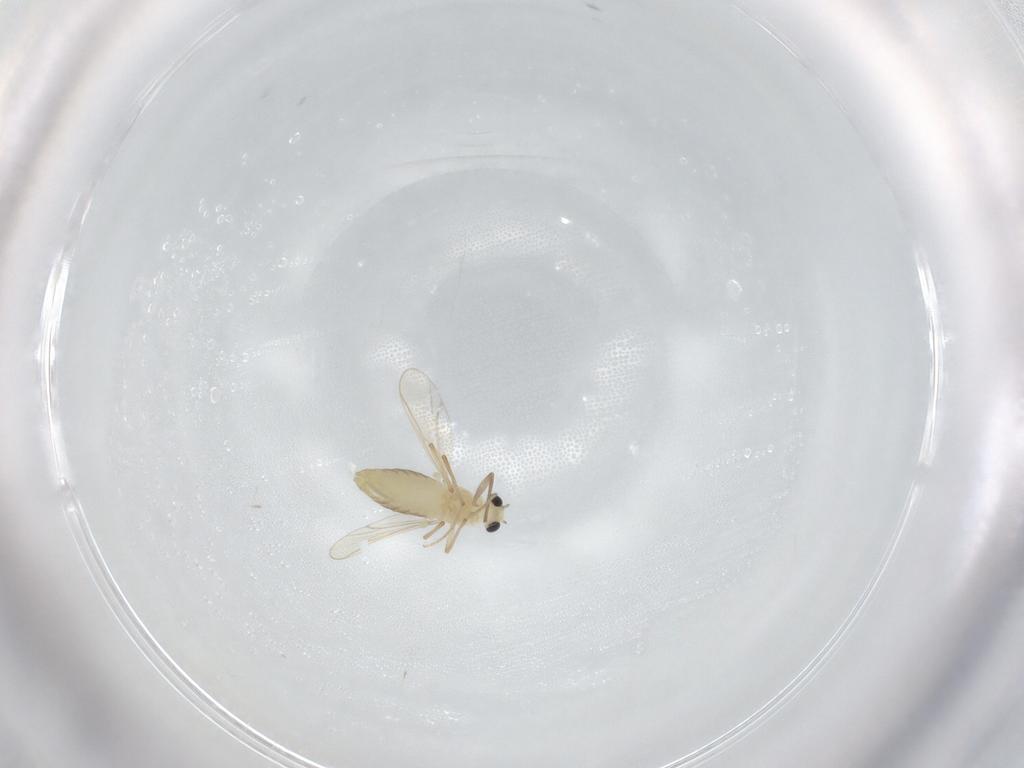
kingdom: Animalia
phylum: Arthropoda
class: Insecta
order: Diptera
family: Chironomidae
